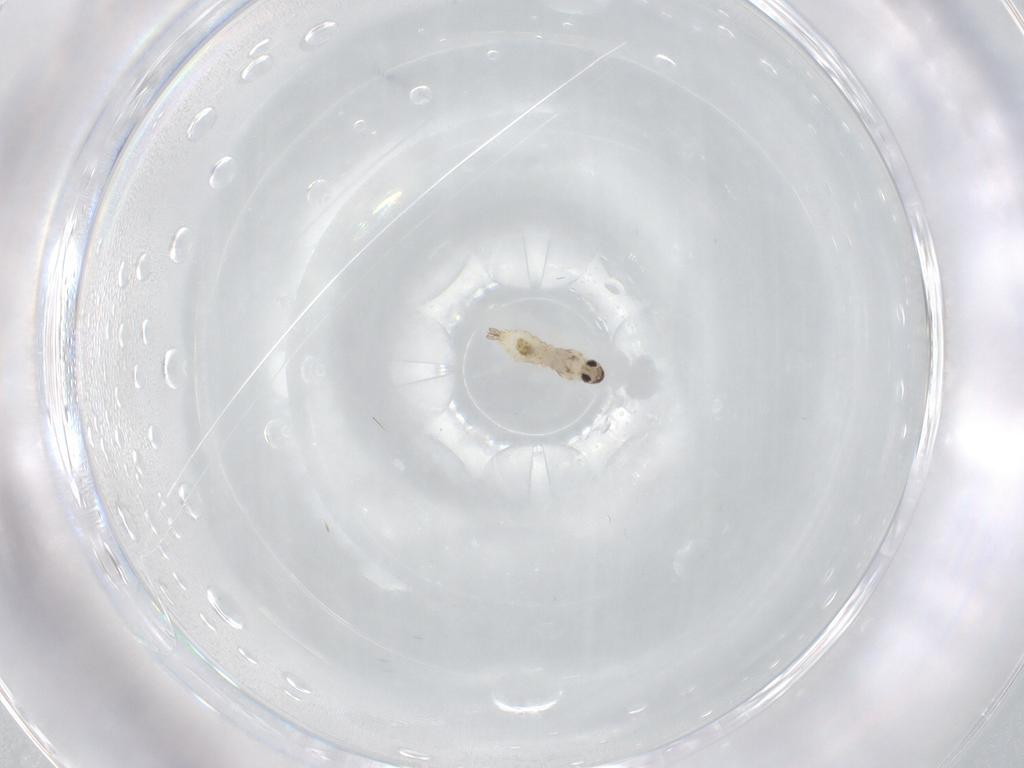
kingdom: Animalia
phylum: Arthropoda
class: Insecta
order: Diptera
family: Cecidomyiidae
